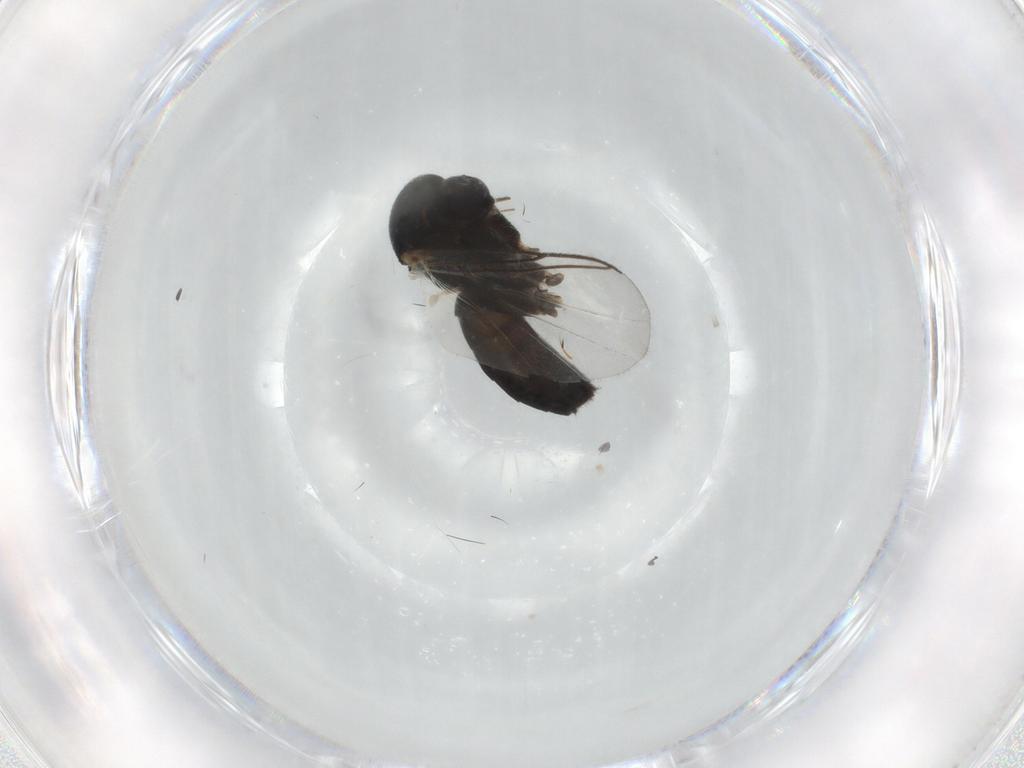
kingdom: Animalia
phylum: Arthropoda
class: Insecta
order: Diptera
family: Mycetophilidae
